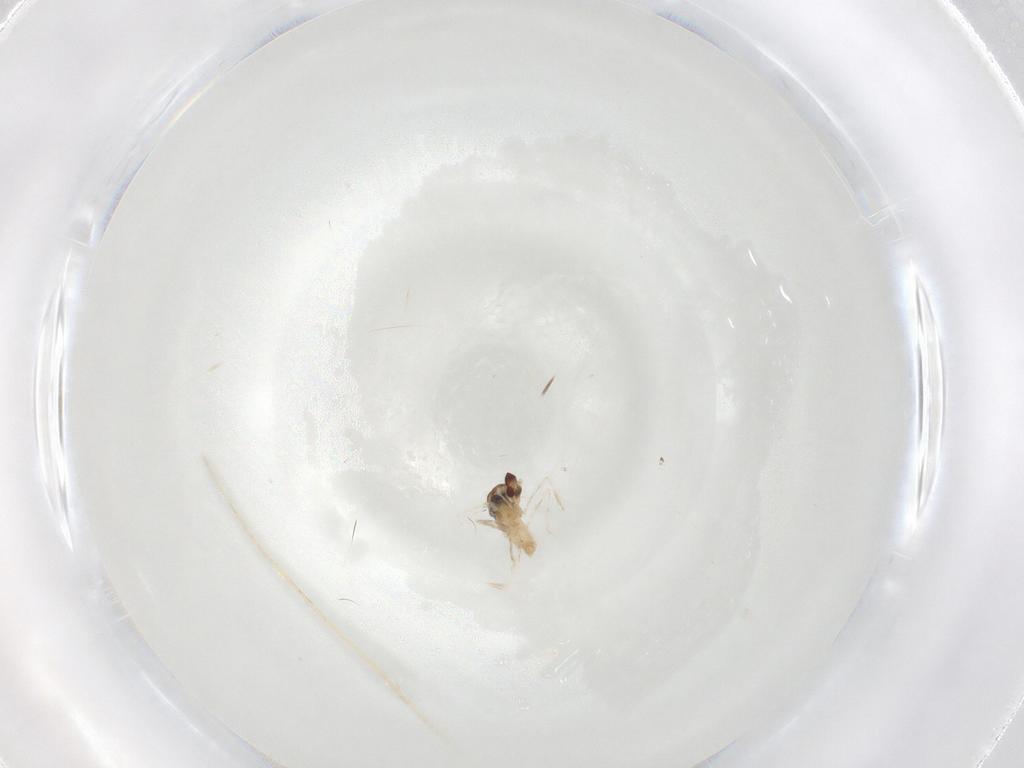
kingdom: Animalia
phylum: Arthropoda
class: Insecta
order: Diptera
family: Cecidomyiidae
